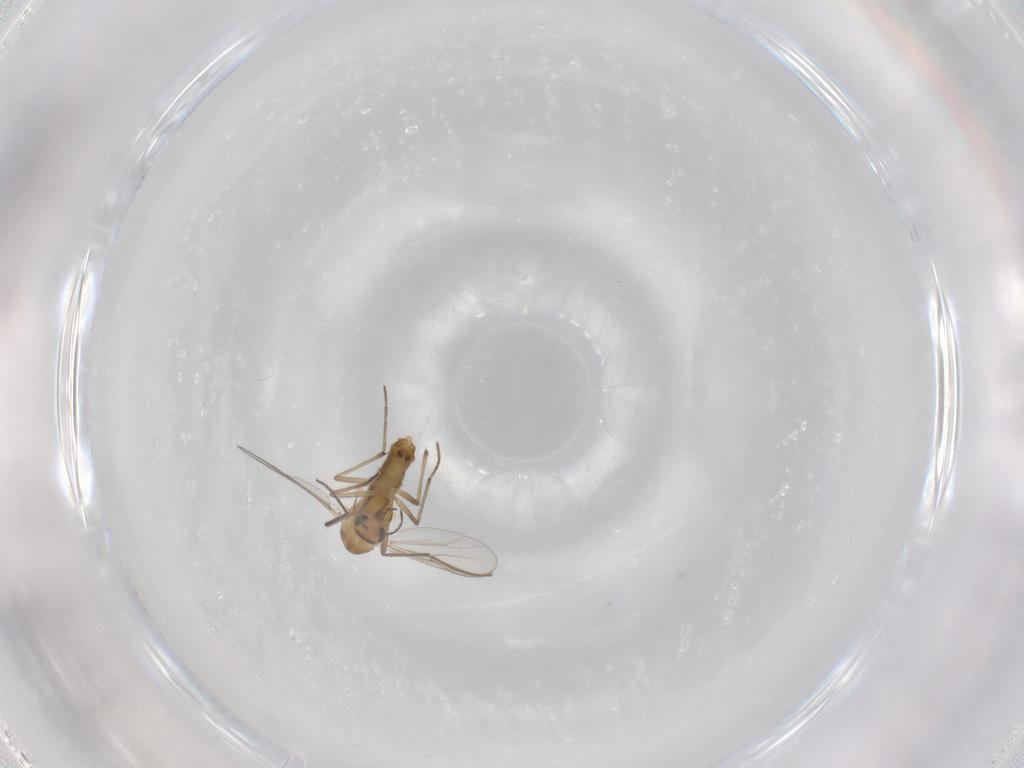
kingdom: Animalia
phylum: Arthropoda
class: Insecta
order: Diptera
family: Chironomidae
